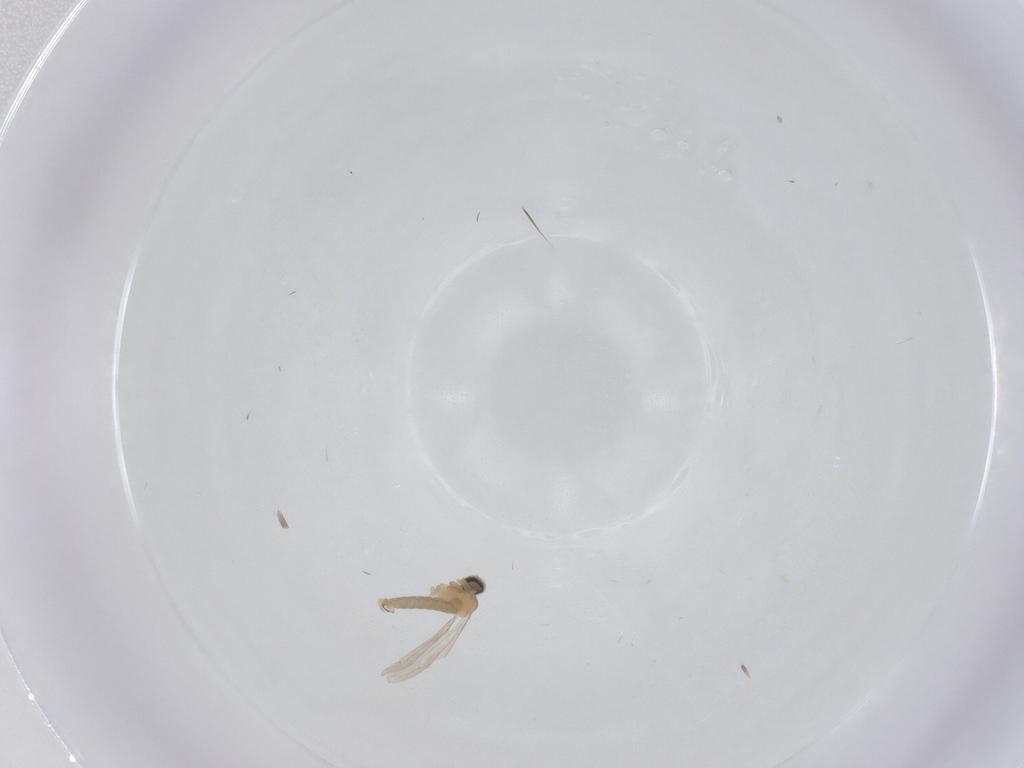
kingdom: Animalia
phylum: Arthropoda
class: Insecta
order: Diptera
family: Cecidomyiidae
